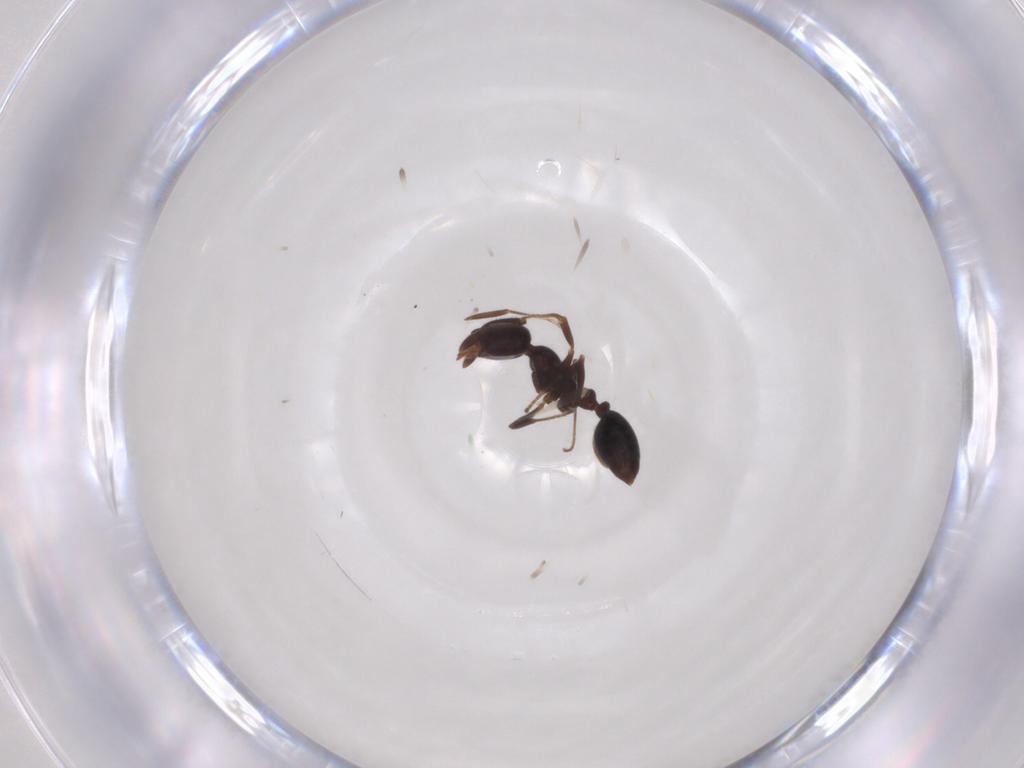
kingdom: Animalia
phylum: Arthropoda
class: Insecta
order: Hymenoptera
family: Formicidae
